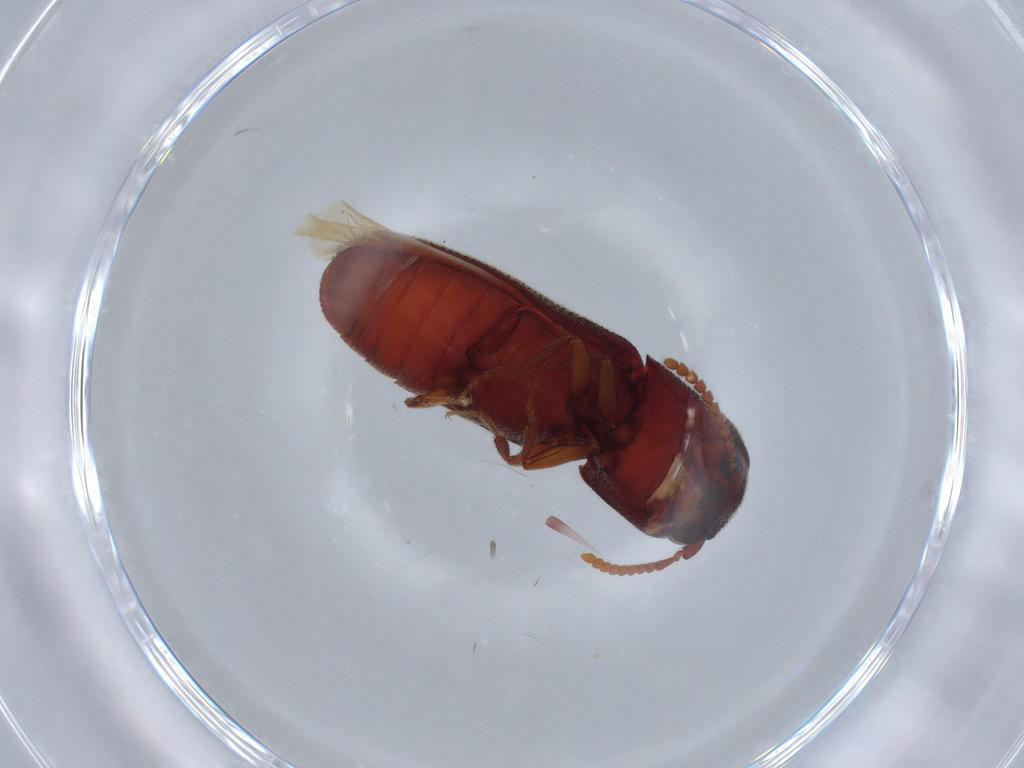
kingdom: Animalia
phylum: Arthropoda
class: Insecta
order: Coleoptera
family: Eucnemidae
